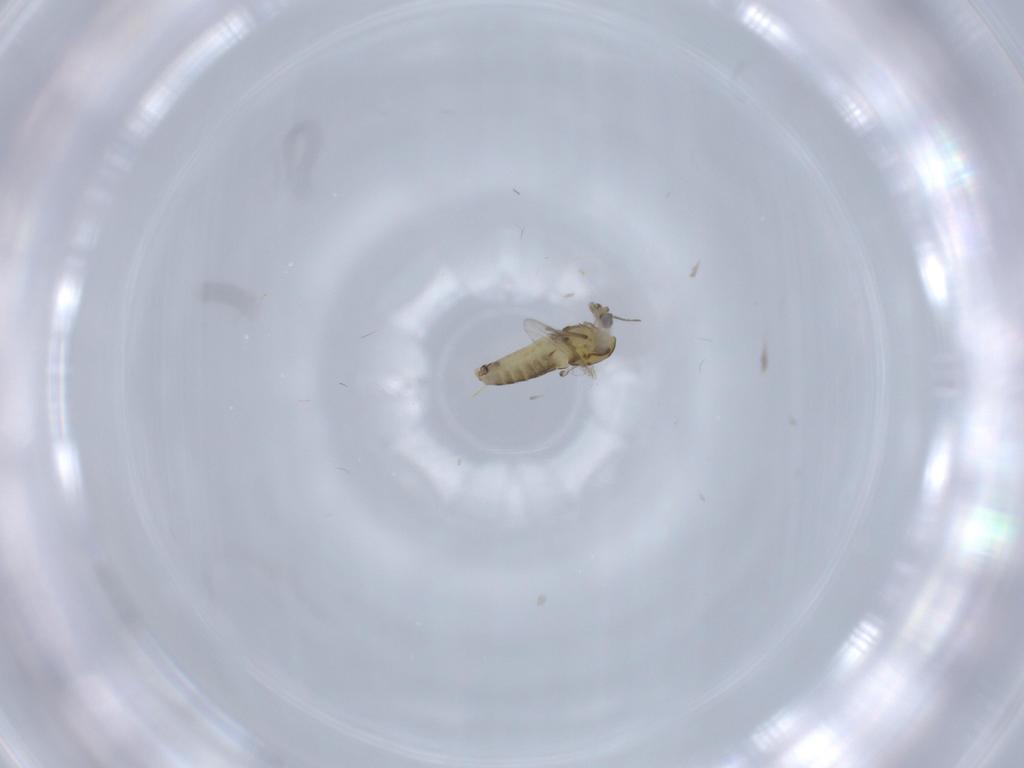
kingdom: Animalia
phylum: Arthropoda
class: Insecta
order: Diptera
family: Chironomidae
